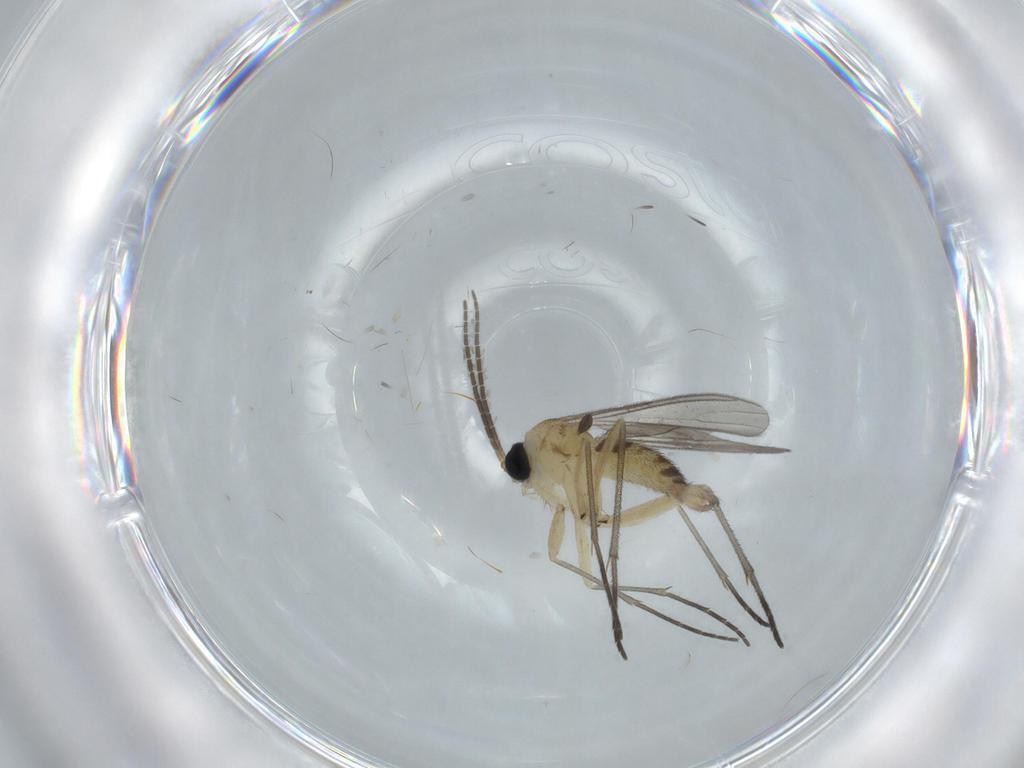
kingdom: Animalia
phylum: Arthropoda
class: Insecta
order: Diptera
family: Sciaridae
